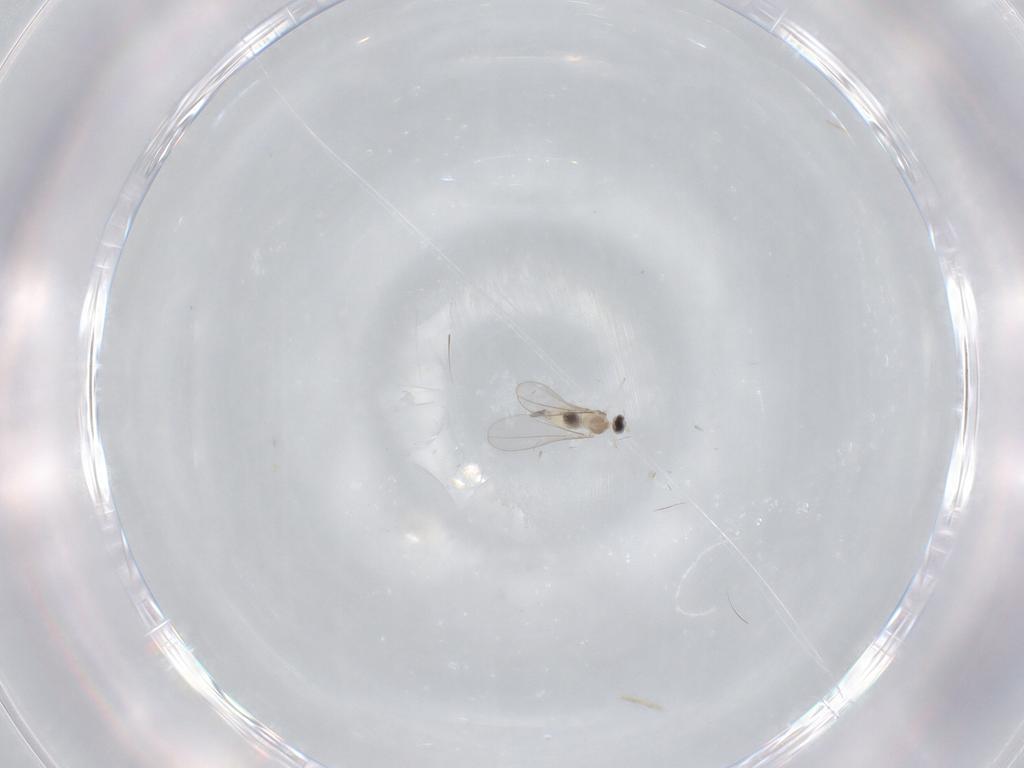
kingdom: Animalia
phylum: Arthropoda
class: Insecta
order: Diptera
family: Cecidomyiidae
